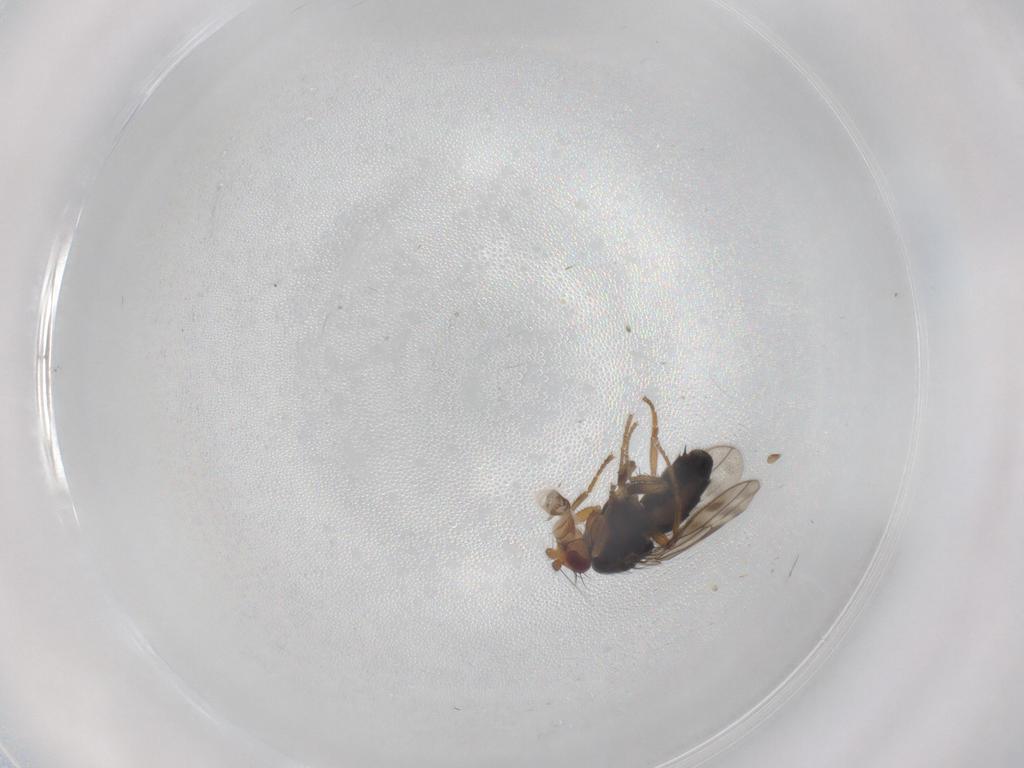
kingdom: Animalia
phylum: Arthropoda
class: Insecta
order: Diptera
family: Sphaeroceridae
